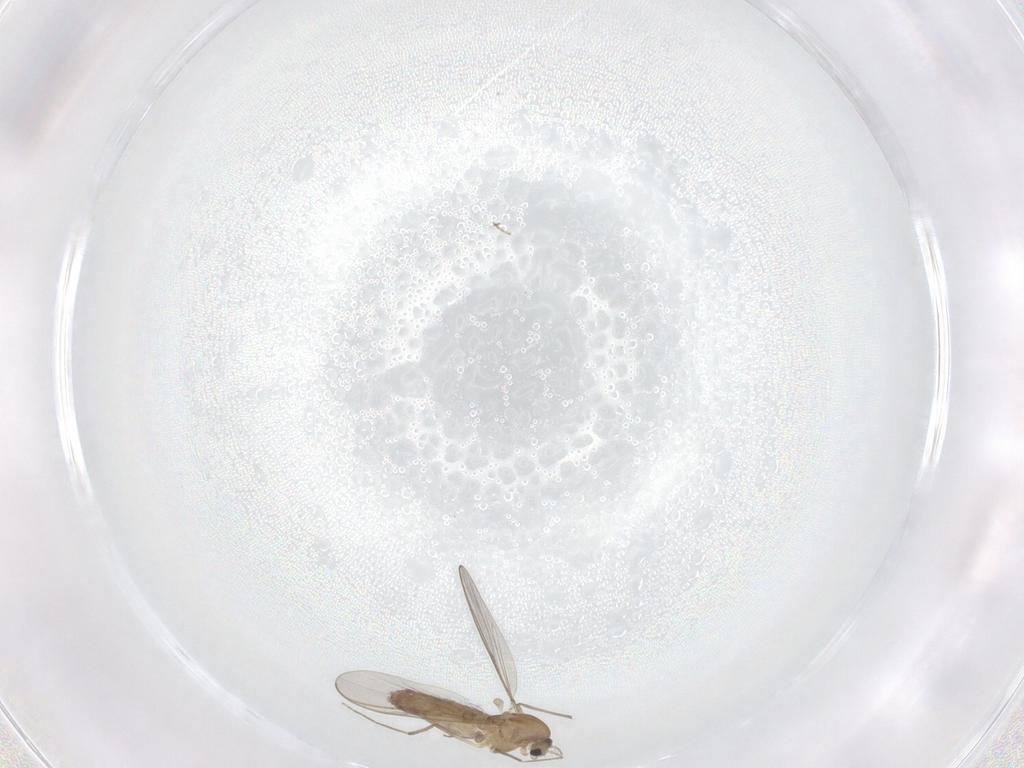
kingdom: Animalia
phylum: Arthropoda
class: Insecta
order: Diptera
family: Chironomidae
